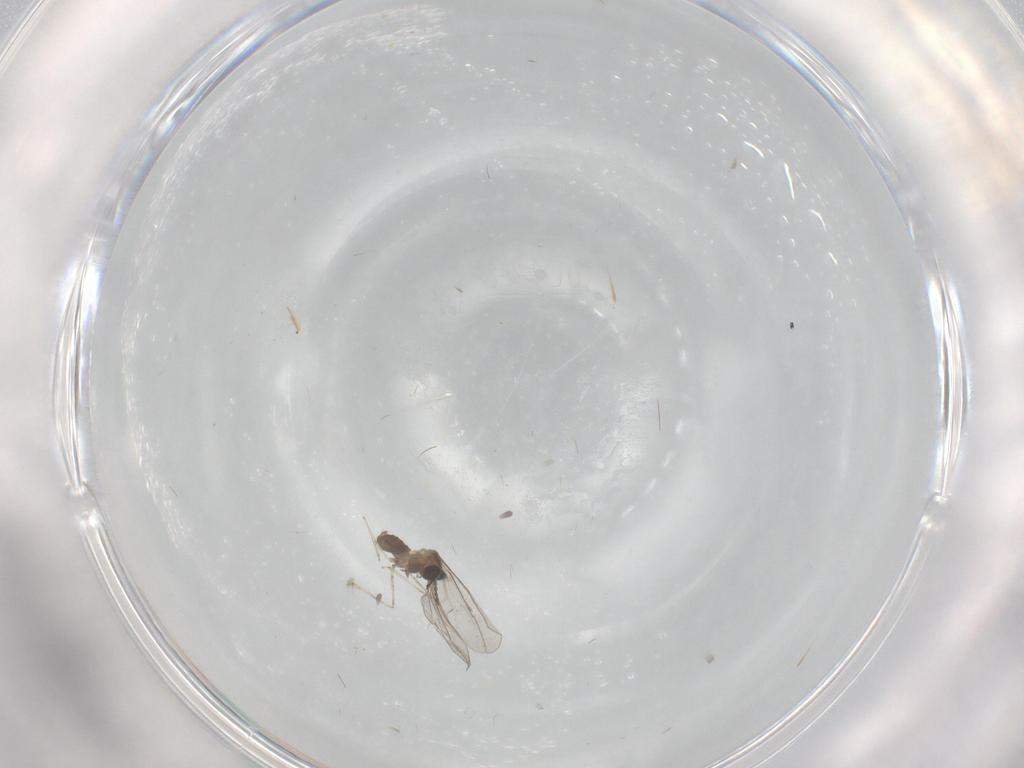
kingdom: Animalia
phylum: Arthropoda
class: Insecta
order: Diptera
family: Cecidomyiidae
